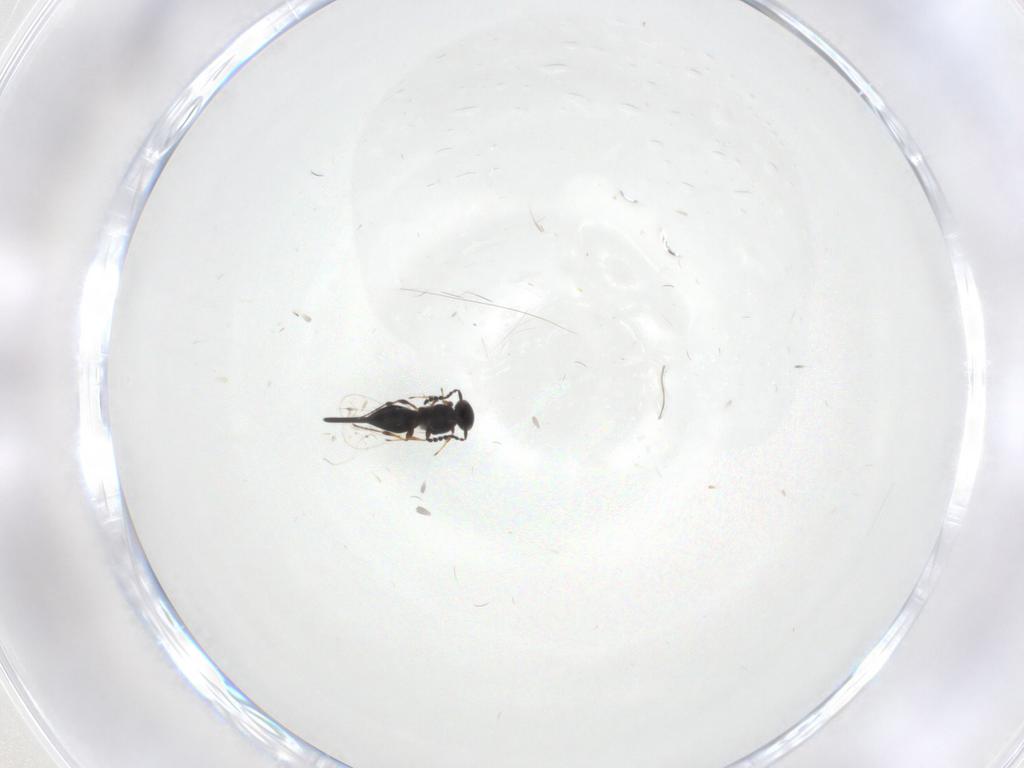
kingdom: Animalia
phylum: Arthropoda
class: Insecta
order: Hymenoptera
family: Platygastridae
